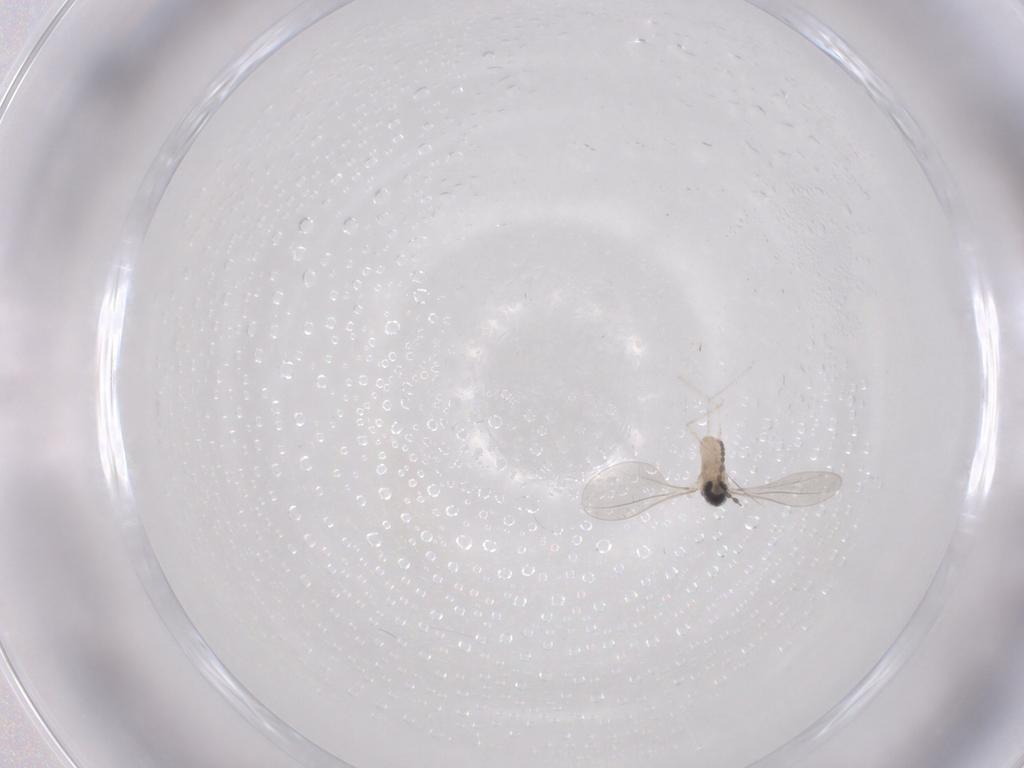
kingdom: Animalia
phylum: Arthropoda
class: Insecta
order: Diptera
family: Cecidomyiidae
